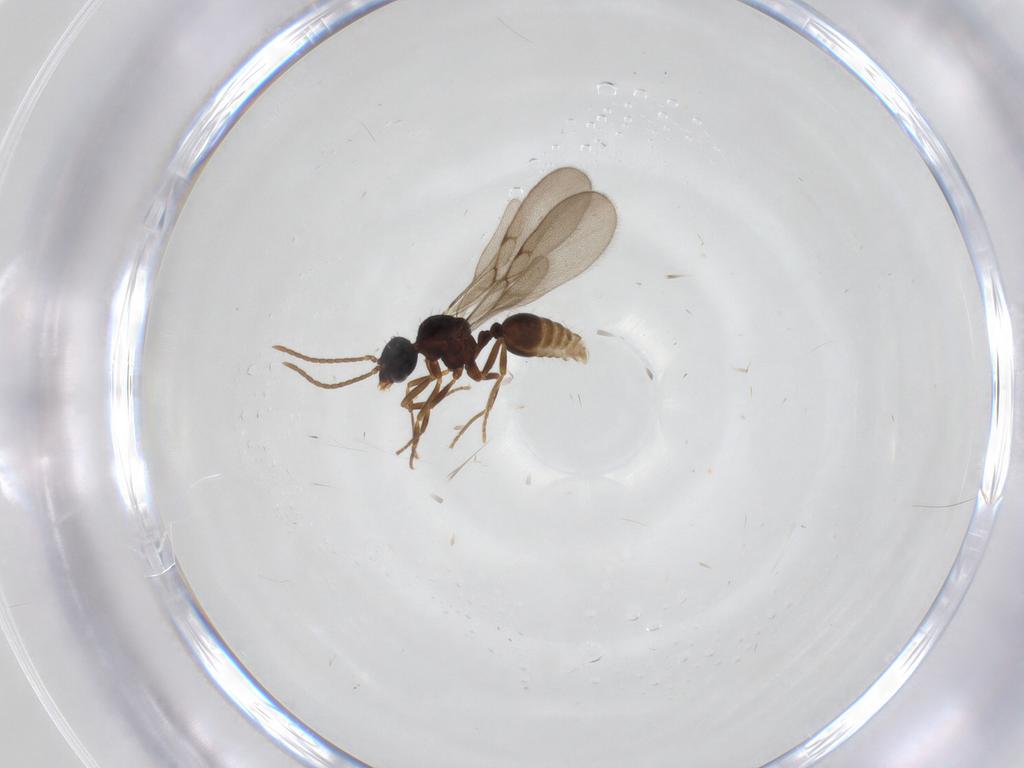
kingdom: Animalia
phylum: Arthropoda
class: Insecta
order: Hymenoptera
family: Formicidae
